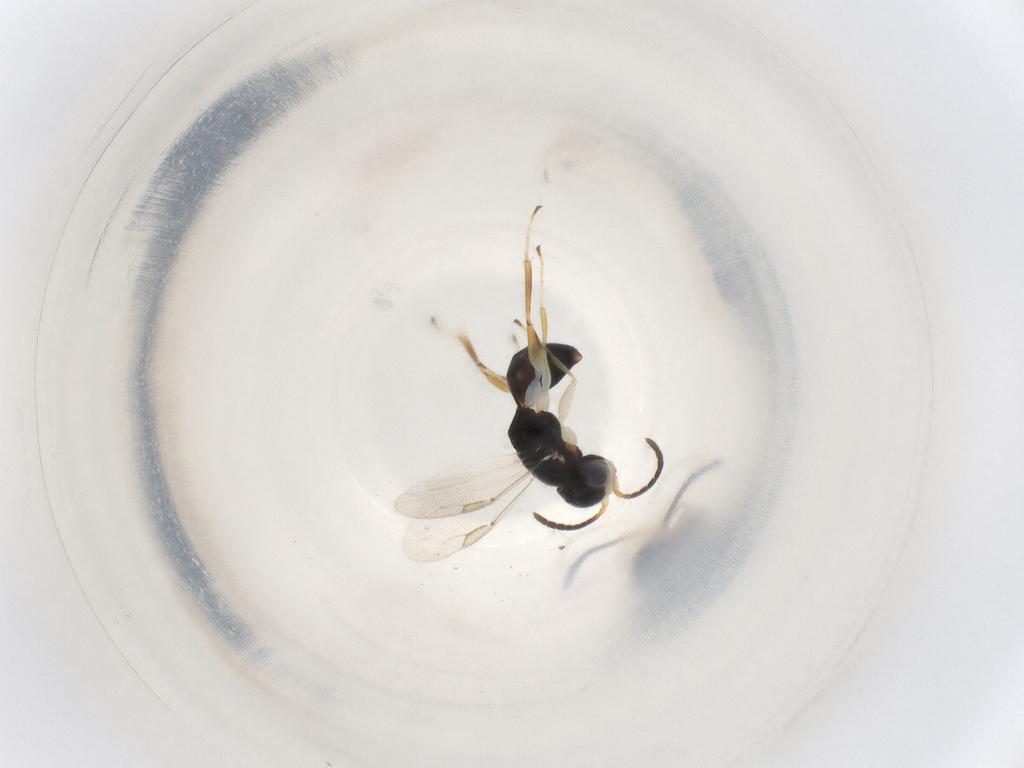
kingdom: Animalia
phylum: Arthropoda
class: Insecta
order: Hymenoptera
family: Dryinidae
